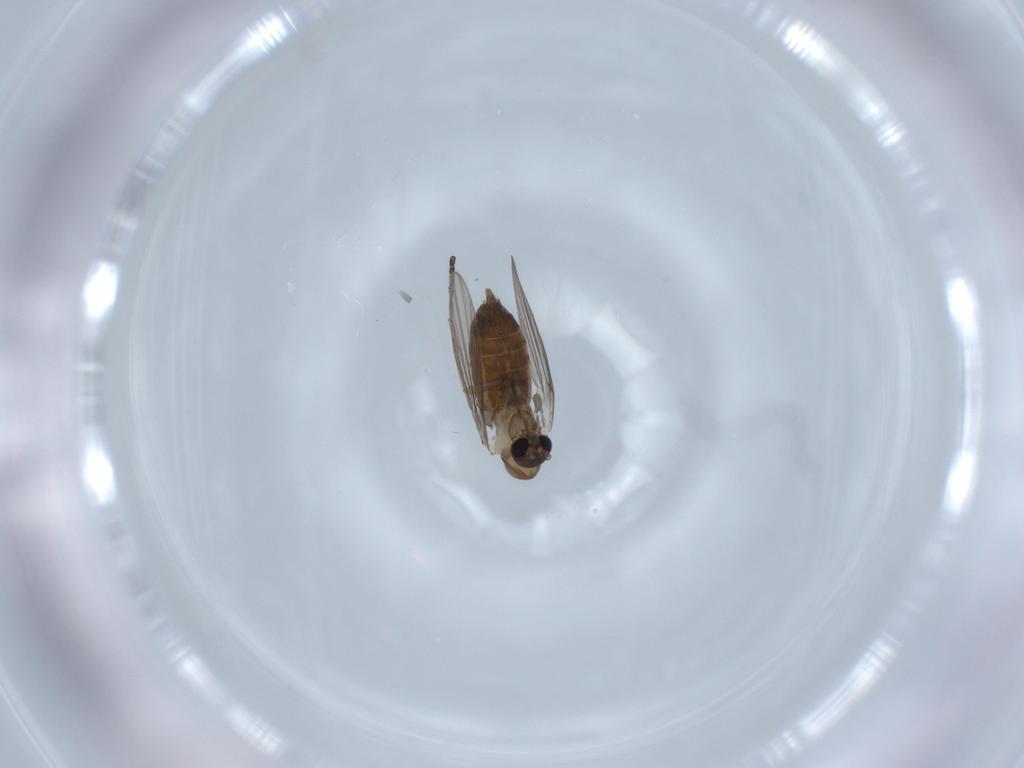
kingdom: Animalia
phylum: Arthropoda
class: Insecta
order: Diptera
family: Psychodidae
